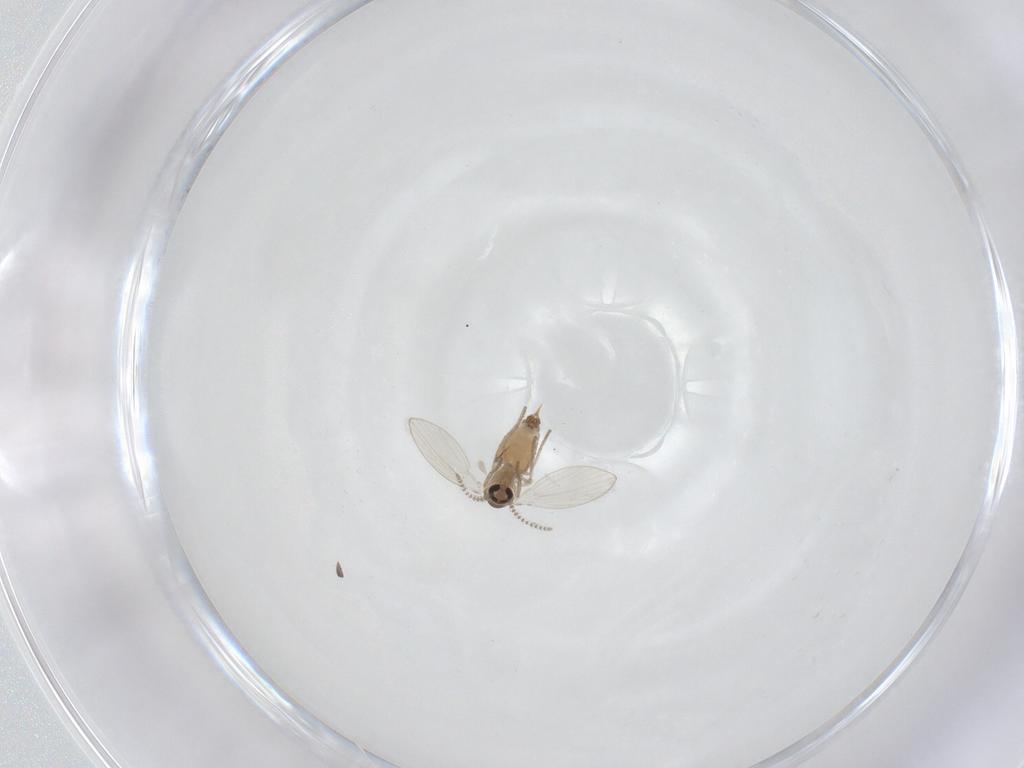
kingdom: Animalia
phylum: Arthropoda
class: Insecta
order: Diptera
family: Psychodidae
